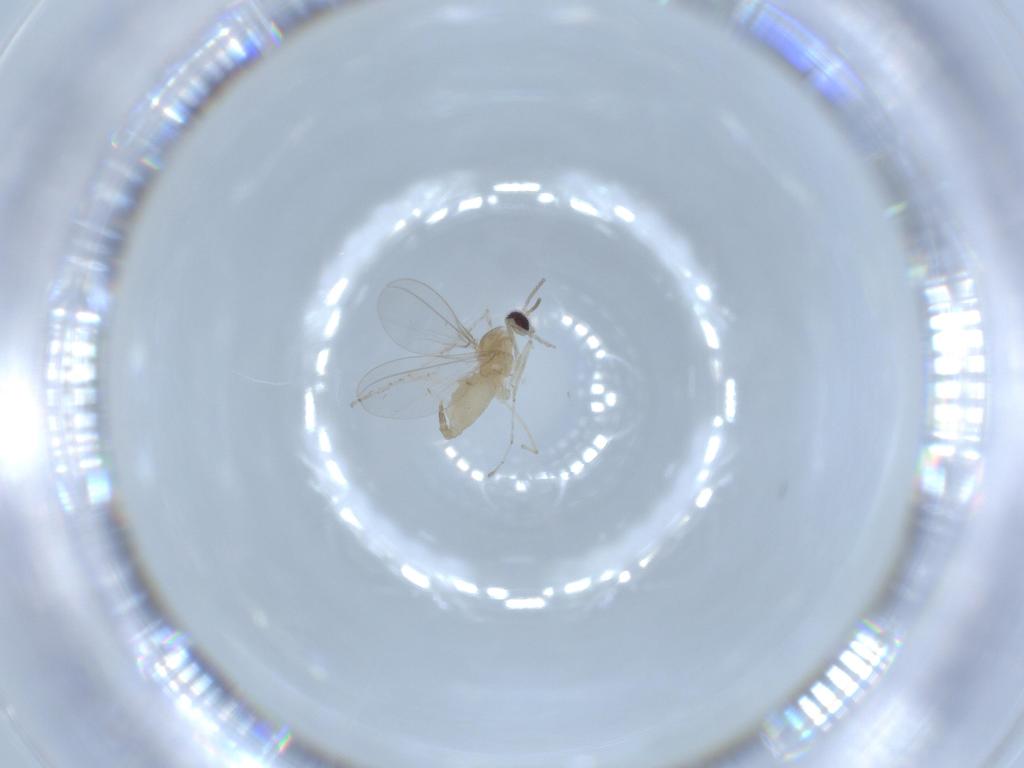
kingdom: Animalia
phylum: Arthropoda
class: Insecta
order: Diptera
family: Cecidomyiidae
